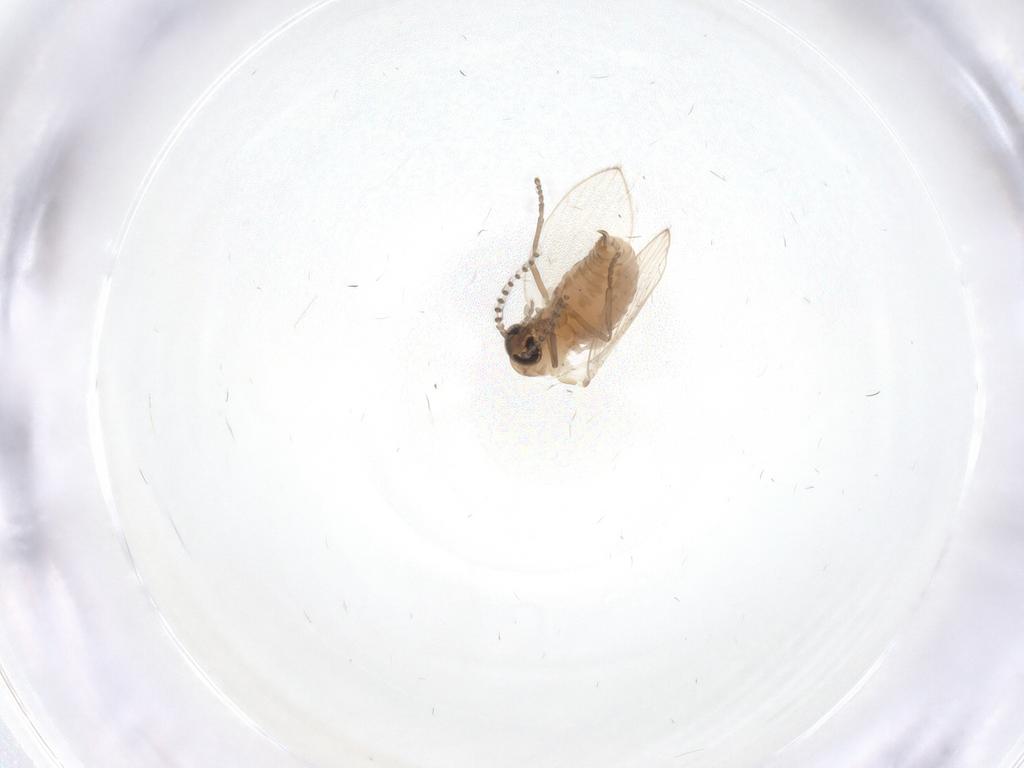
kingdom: Animalia
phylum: Arthropoda
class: Insecta
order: Diptera
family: Psychodidae
